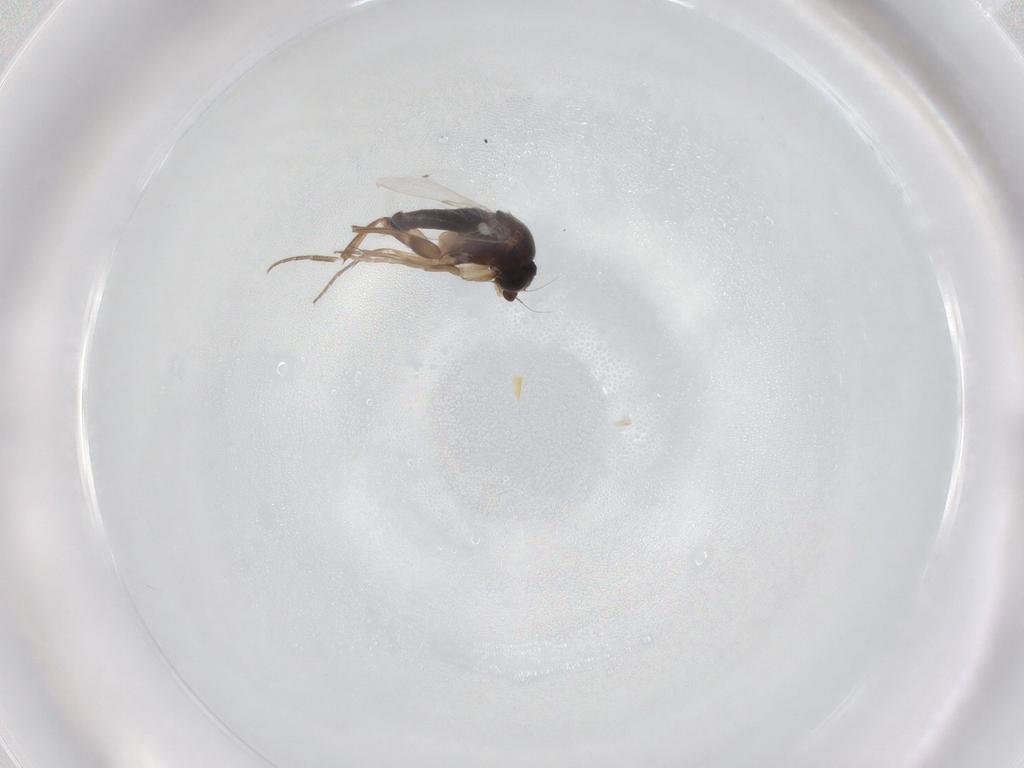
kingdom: Animalia
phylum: Arthropoda
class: Insecta
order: Diptera
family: Phoridae
